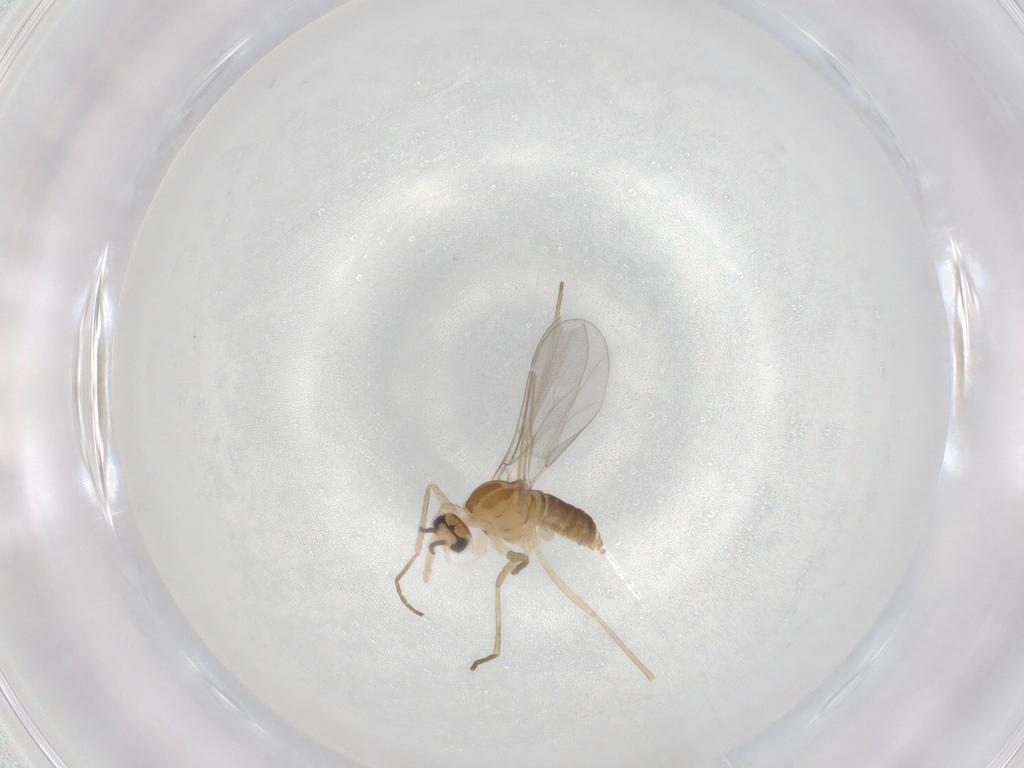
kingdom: Animalia
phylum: Arthropoda
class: Insecta
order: Diptera
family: Cecidomyiidae
